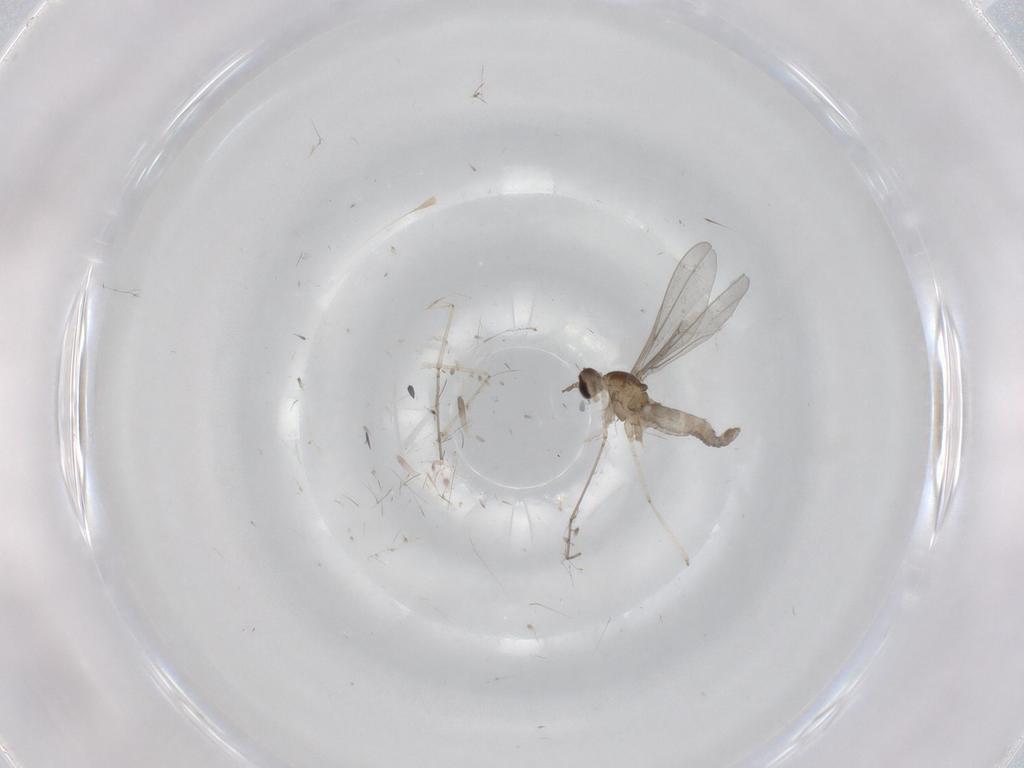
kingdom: Animalia
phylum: Arthropoda
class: Insecta
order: Diptera
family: Cecidomyiidae
